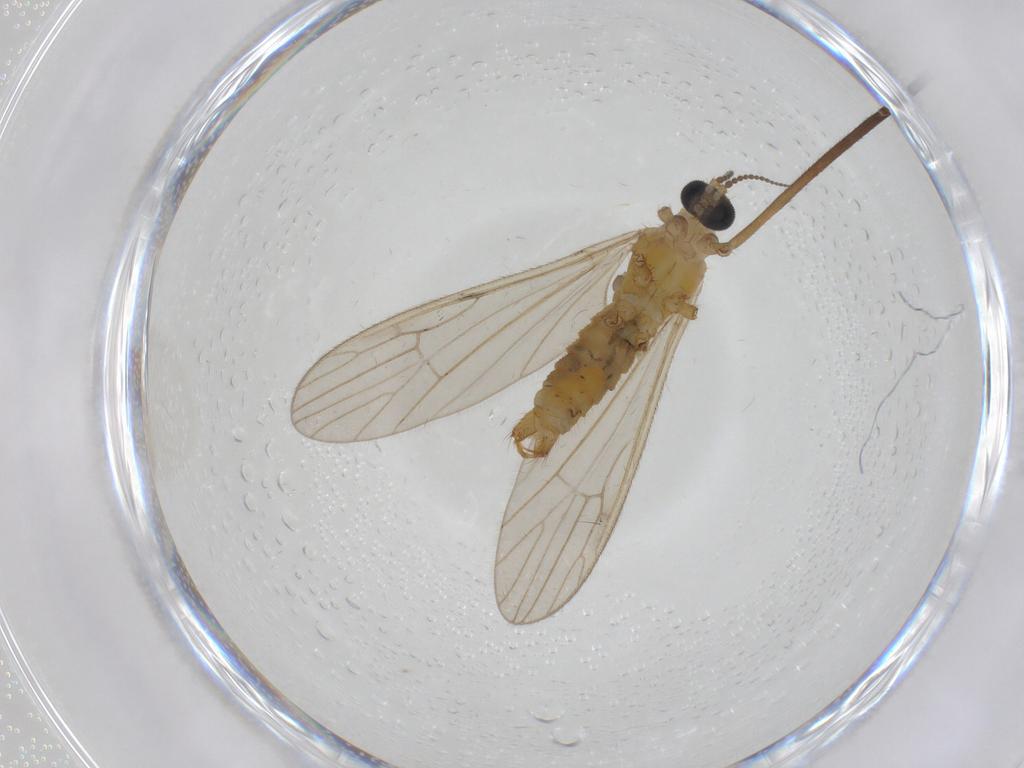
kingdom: Animalia
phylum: Arthropoda
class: Insecta
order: Diptera
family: Limoniidae
